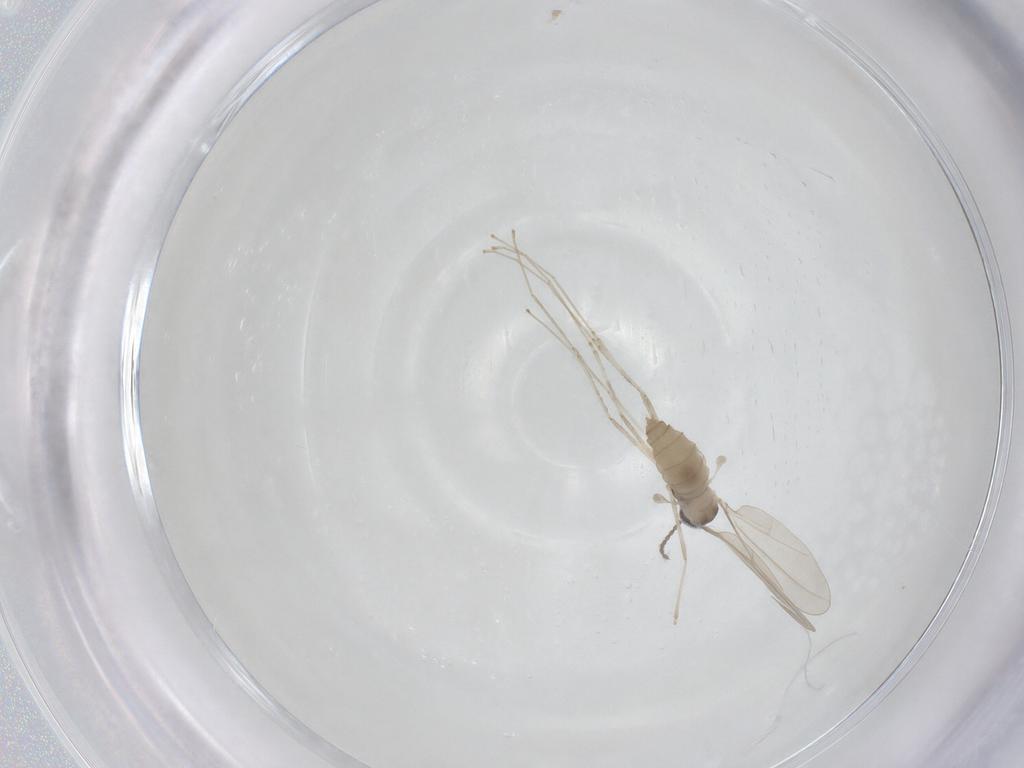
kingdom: Animalia
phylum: Arthropoda
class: Insecta
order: Diptera
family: Cecidomyiidae
